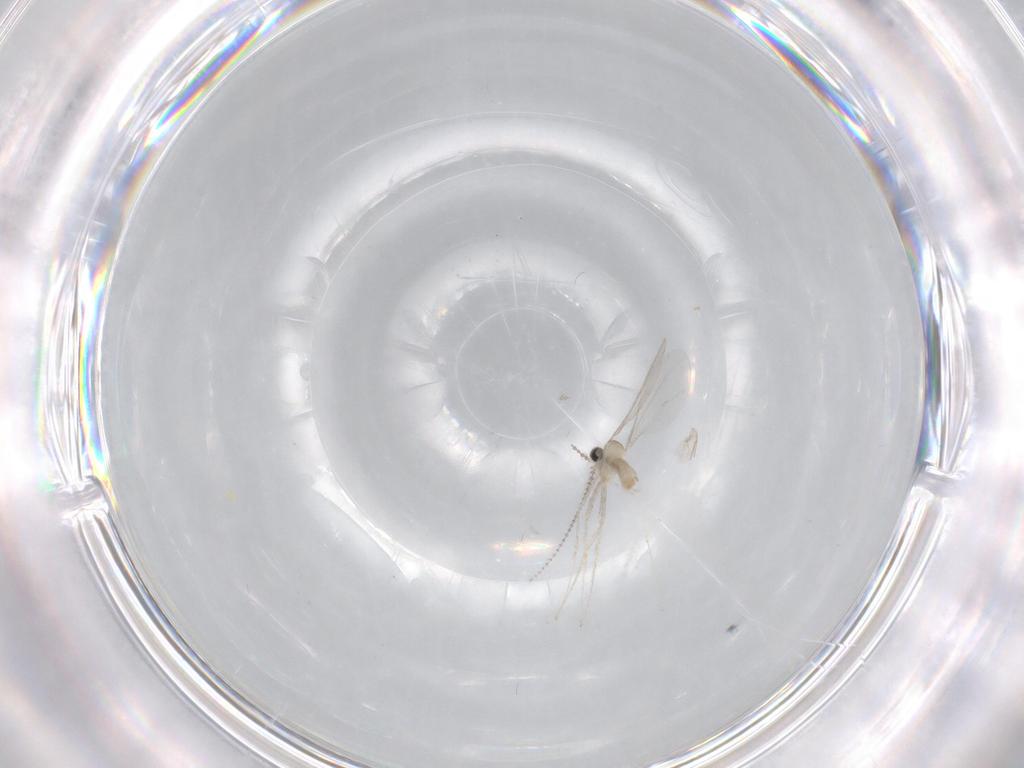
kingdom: Animalia
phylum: Arthropoda
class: Insecta
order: Diptera
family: Cecidomyiidae
